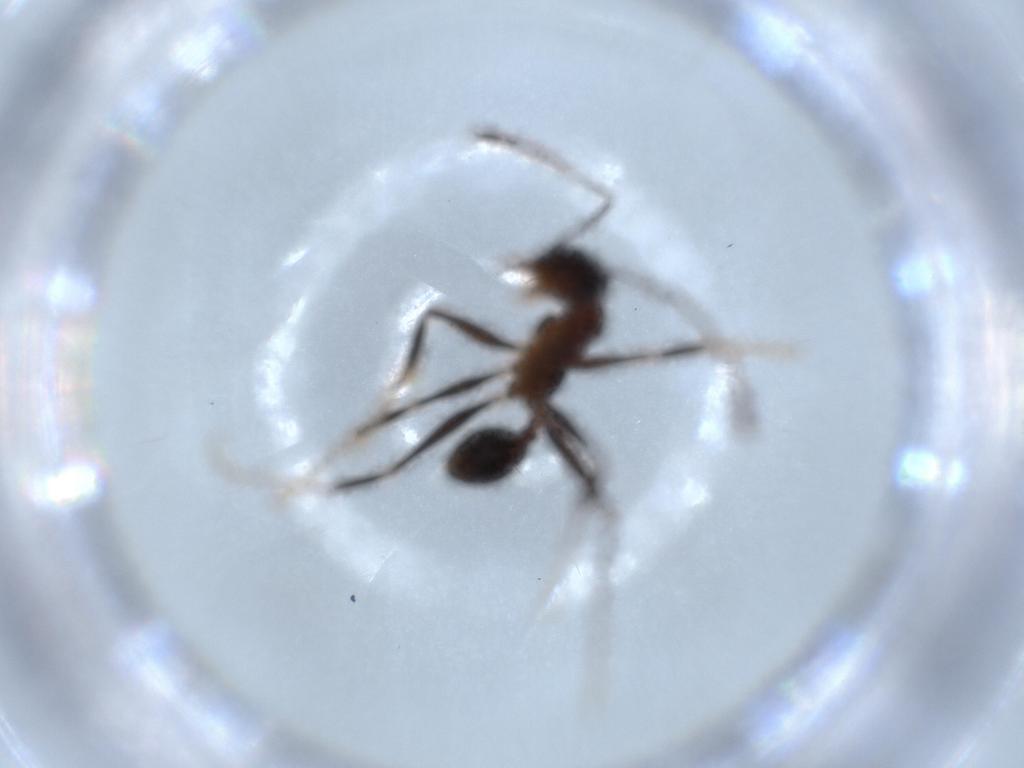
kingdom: Animalia
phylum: Arthropoda
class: Insecta
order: Hymenoptera
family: Formicidae
